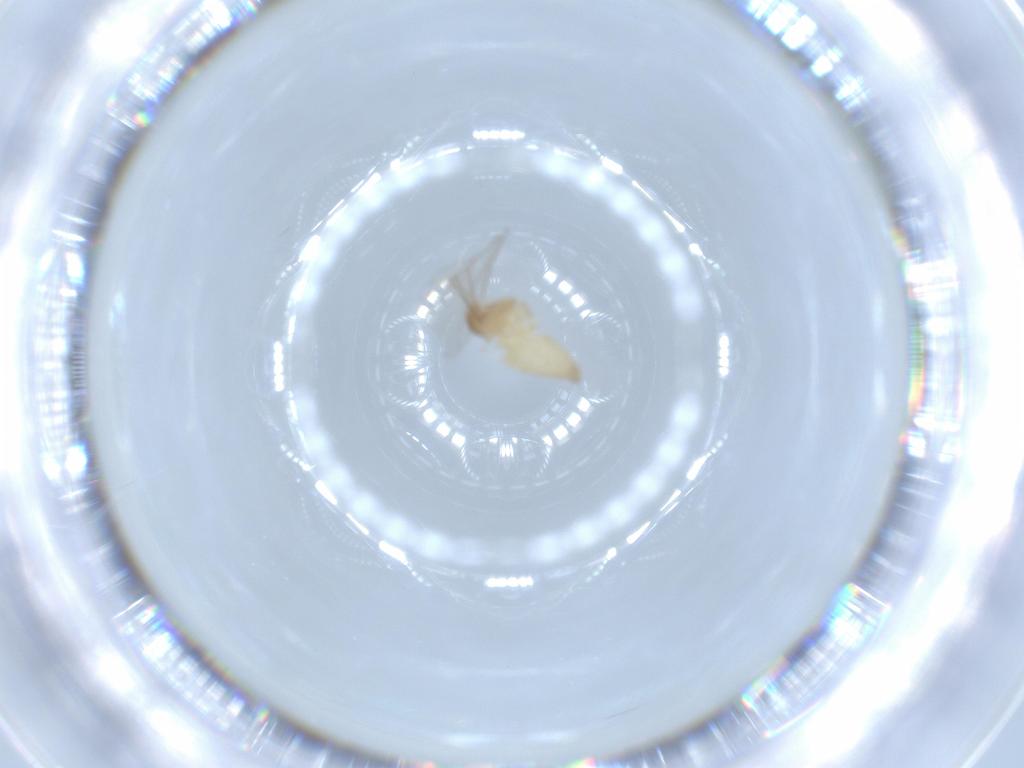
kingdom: Animalia
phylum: Arthropoda
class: Insecta
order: Diptera
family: Cecidomyiidae
